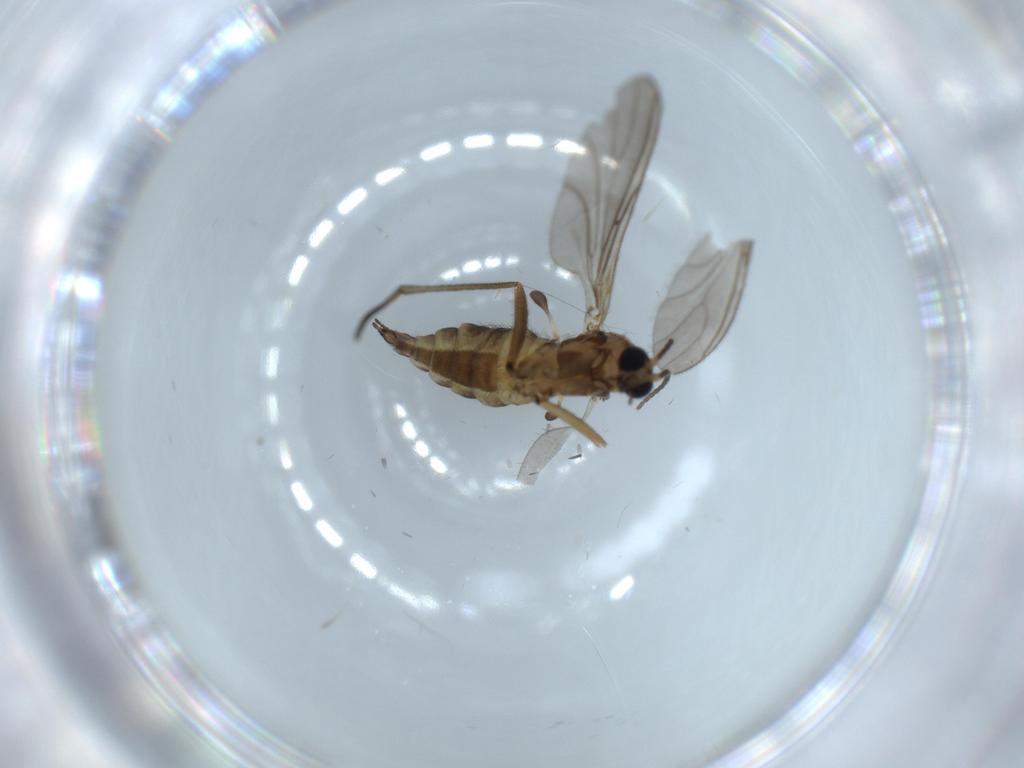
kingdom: Animalia
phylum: Arthropoda
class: Insecta
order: Diptera
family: Sciaridae
